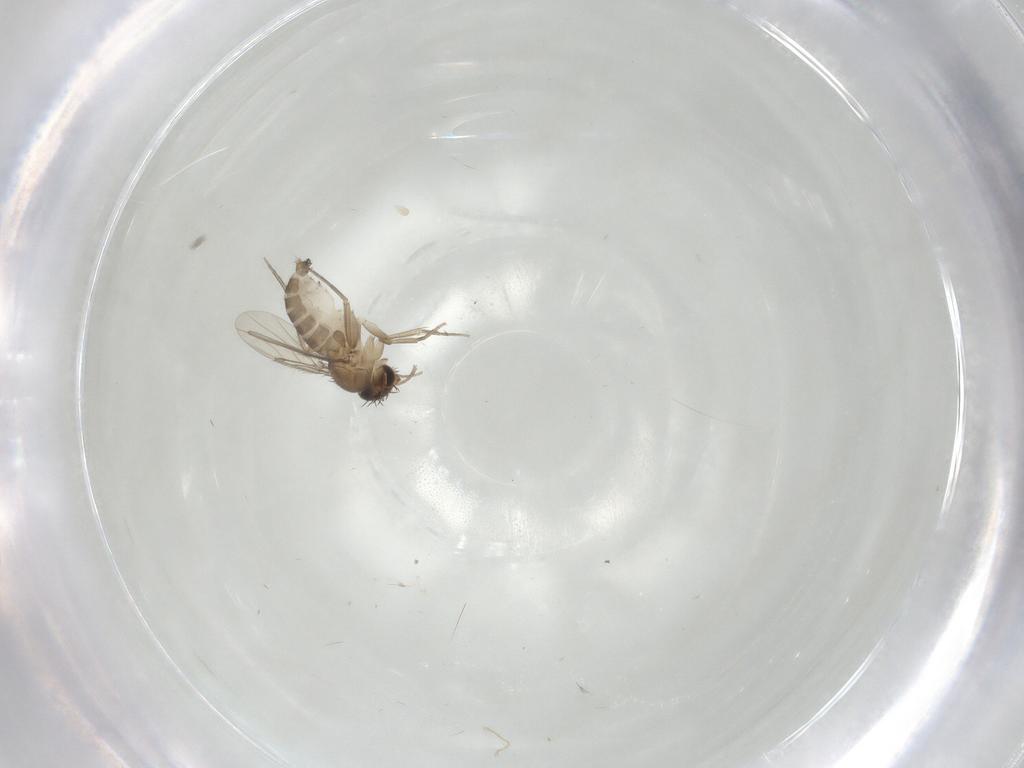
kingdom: Animalia
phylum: Arthropoda
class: Insecta
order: Diptera
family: Phoridae
